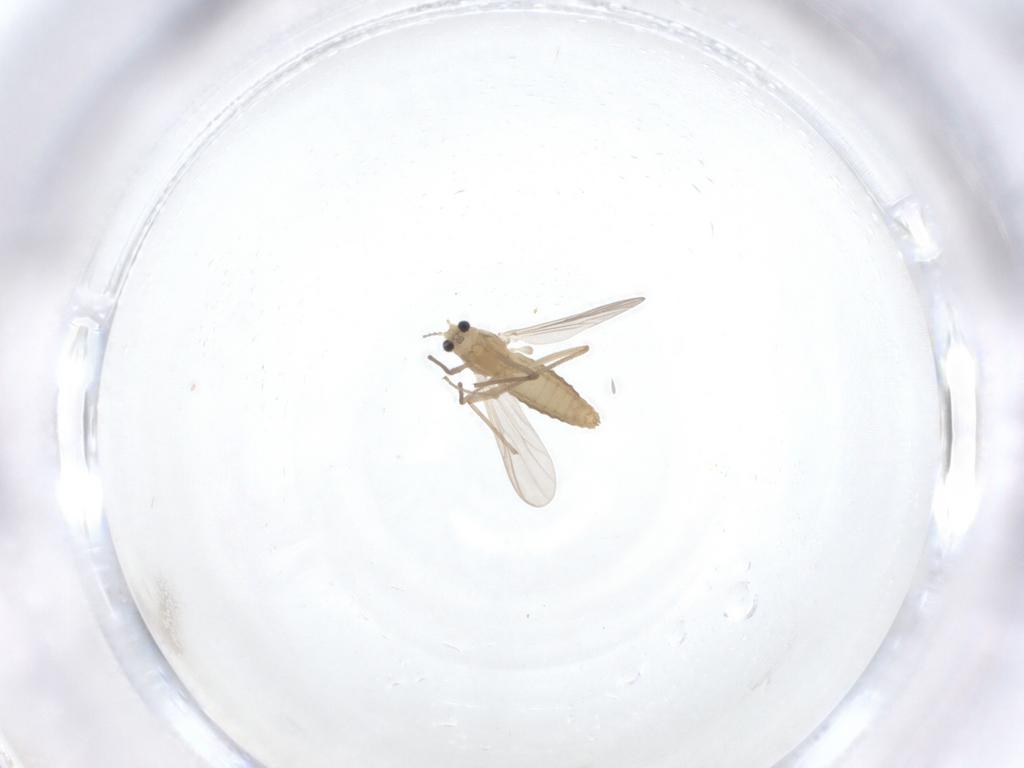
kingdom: Animalia
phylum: Arthropoda
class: Insecta
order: Diptera
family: Chironomidae
